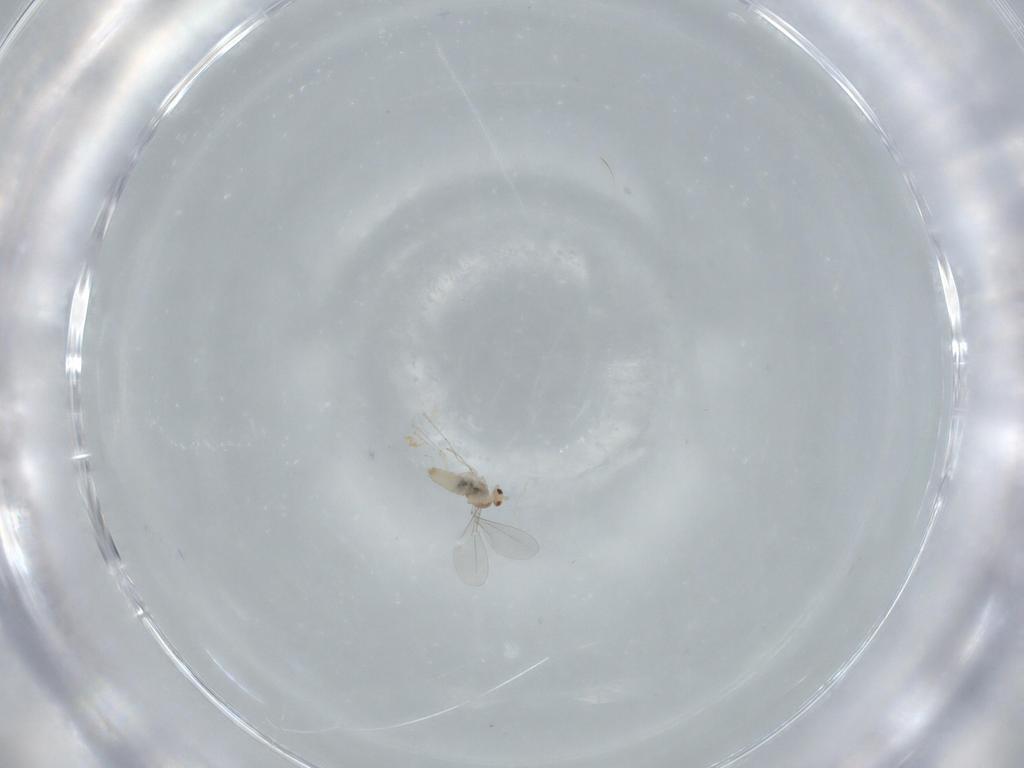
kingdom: Animalia
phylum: Arthropoda
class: Insecta
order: Diptera
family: Cecidomyiidae
